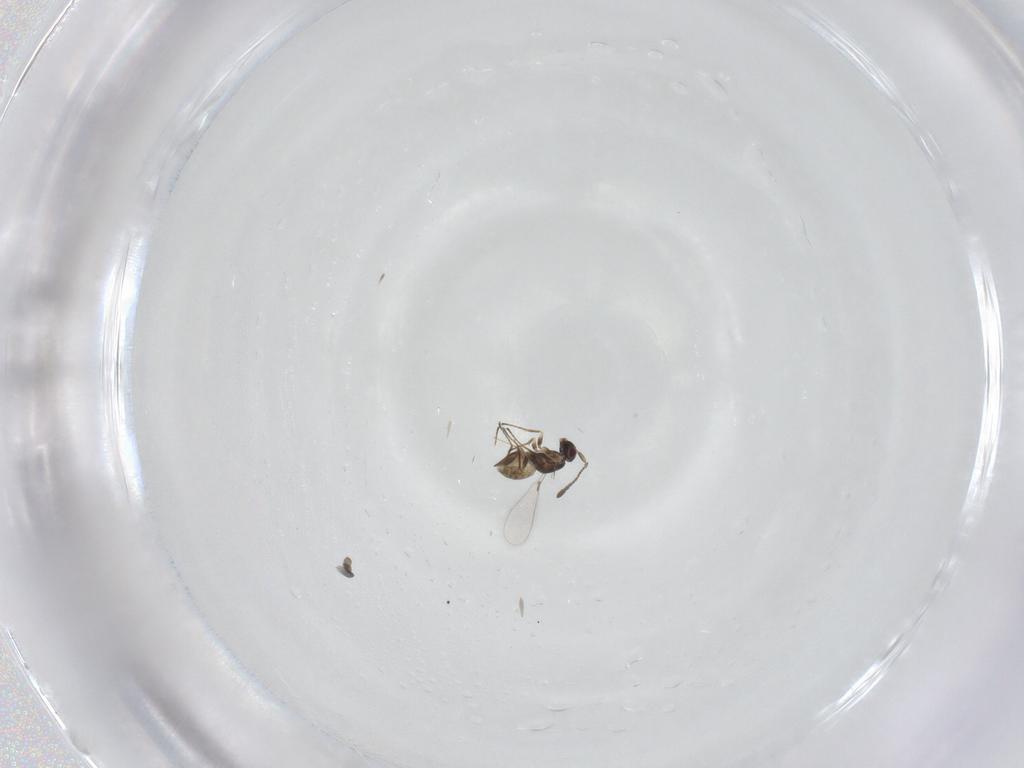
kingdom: Animalia
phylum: Arthropoda
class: Insecta
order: Hymenoptera
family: Mymaridae
